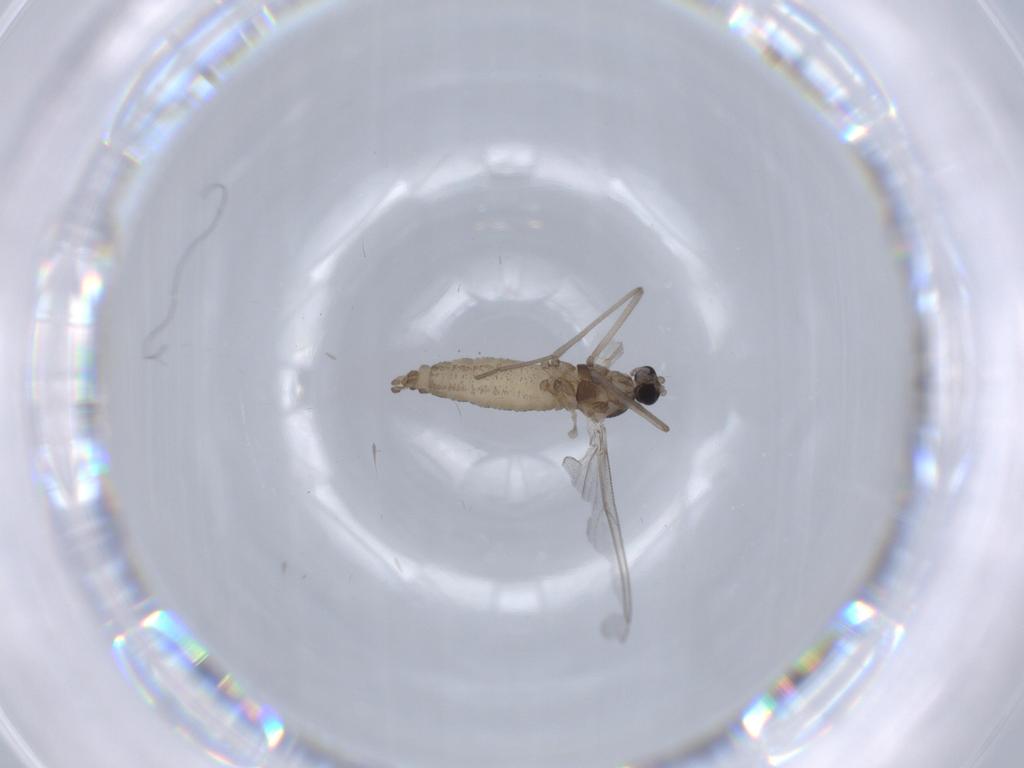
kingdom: Animalia
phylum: Arthropoda
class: Insecta
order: Diptera
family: Cecidomyiidae
